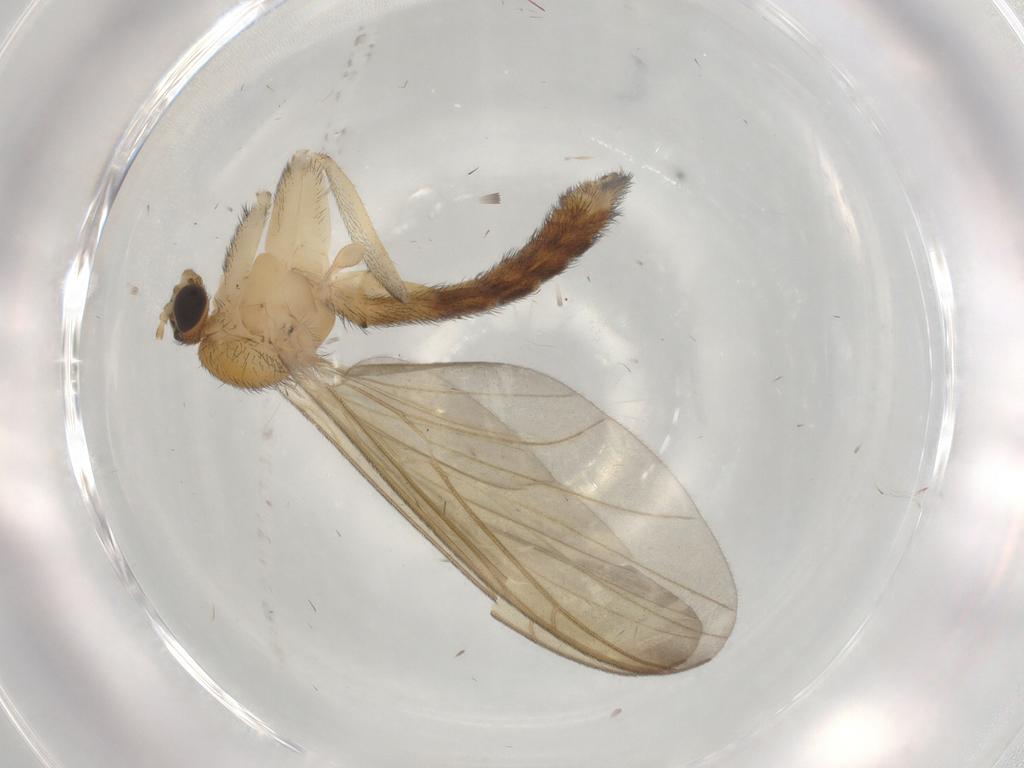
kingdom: Animalia
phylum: Arthropoda
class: Insecta
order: Diptera
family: Keroplatidae
